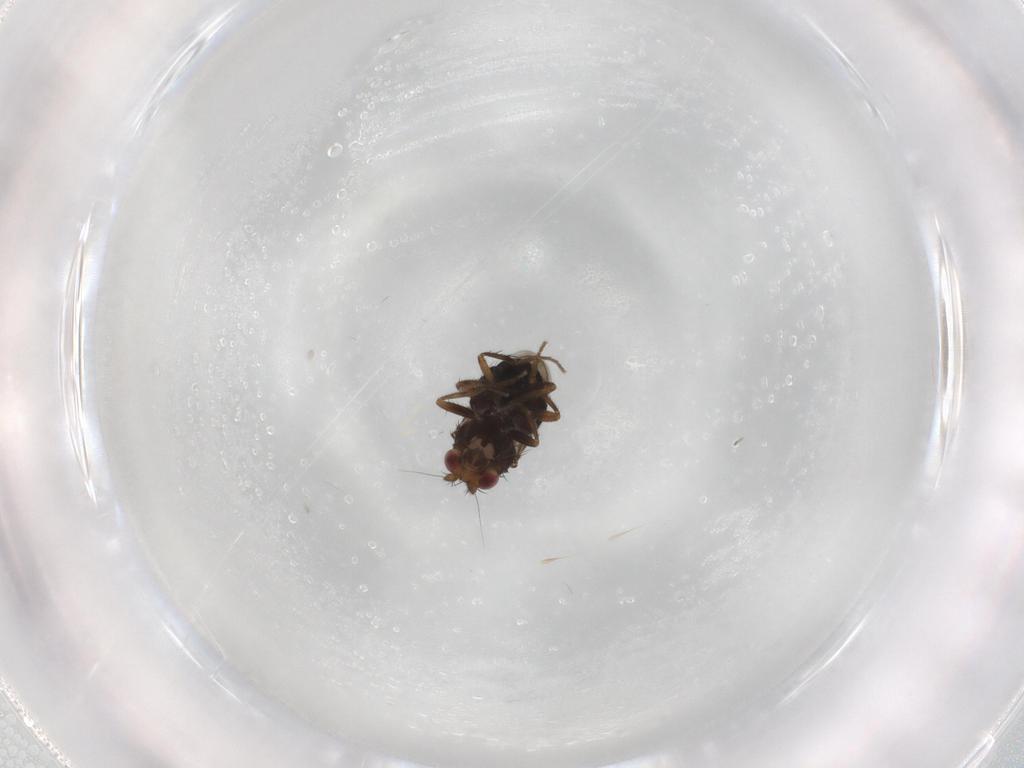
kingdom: Animalia
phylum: Arthropoda
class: Insecta
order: Diptera
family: Sphaeroceridae
